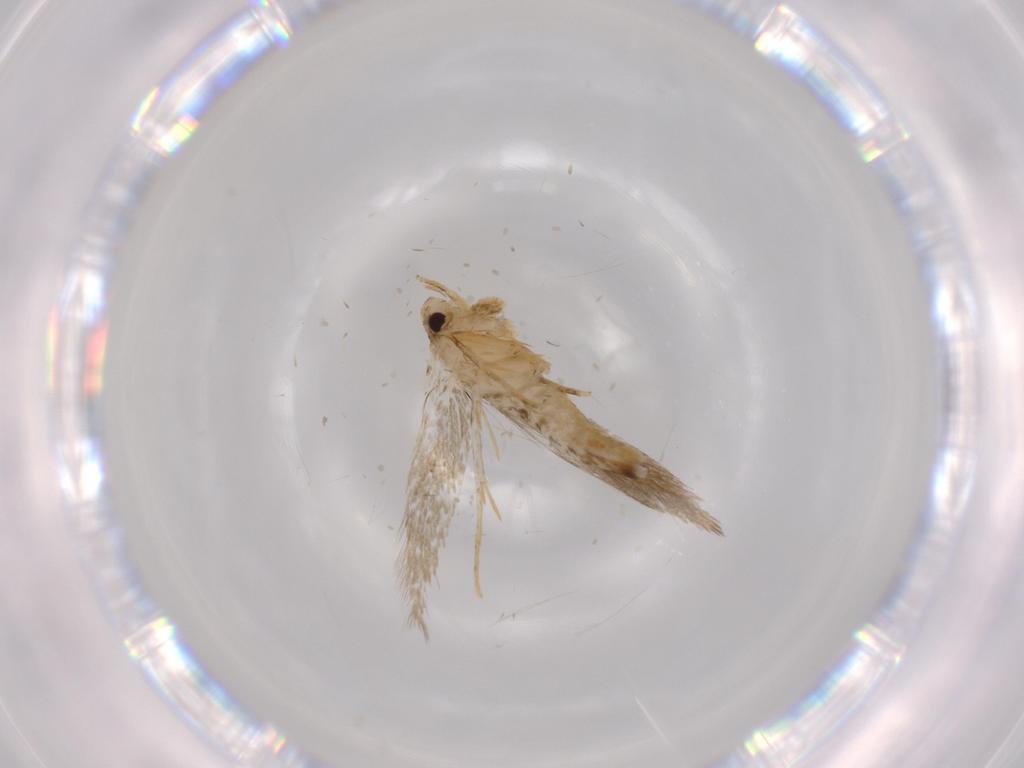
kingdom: Animalia
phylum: Arthropoda
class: Insecta
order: Lepidoptera
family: Tineidae
